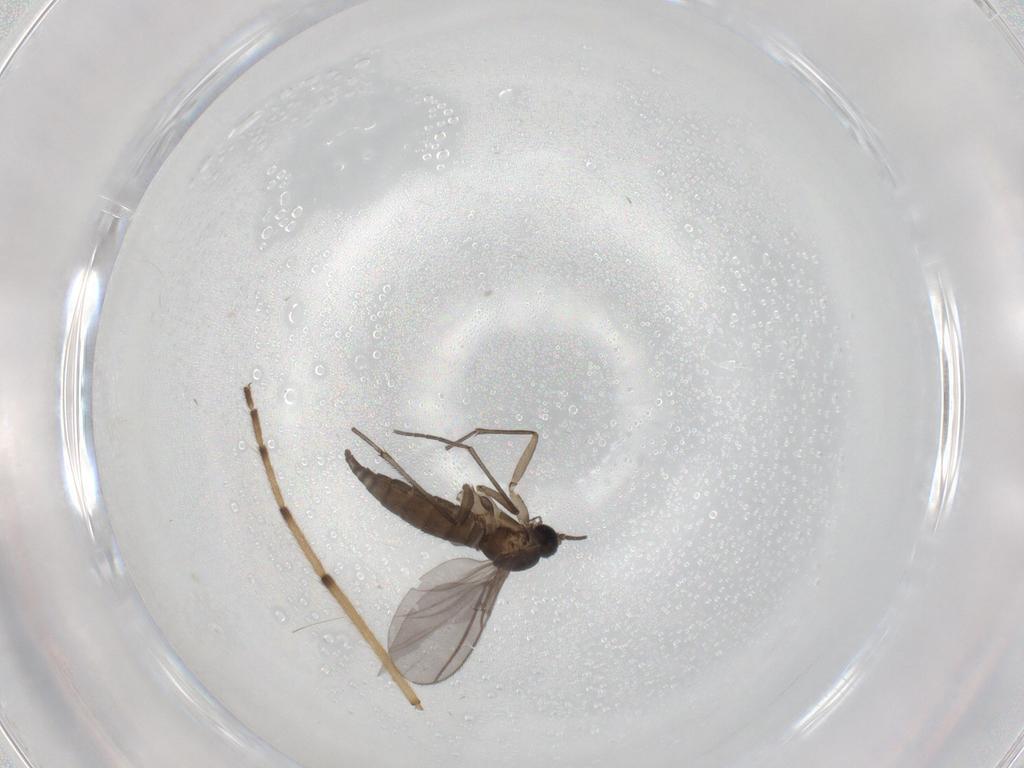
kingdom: Animalia
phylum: Arthropoda
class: Insecta
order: Diptera
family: Sciaridae
